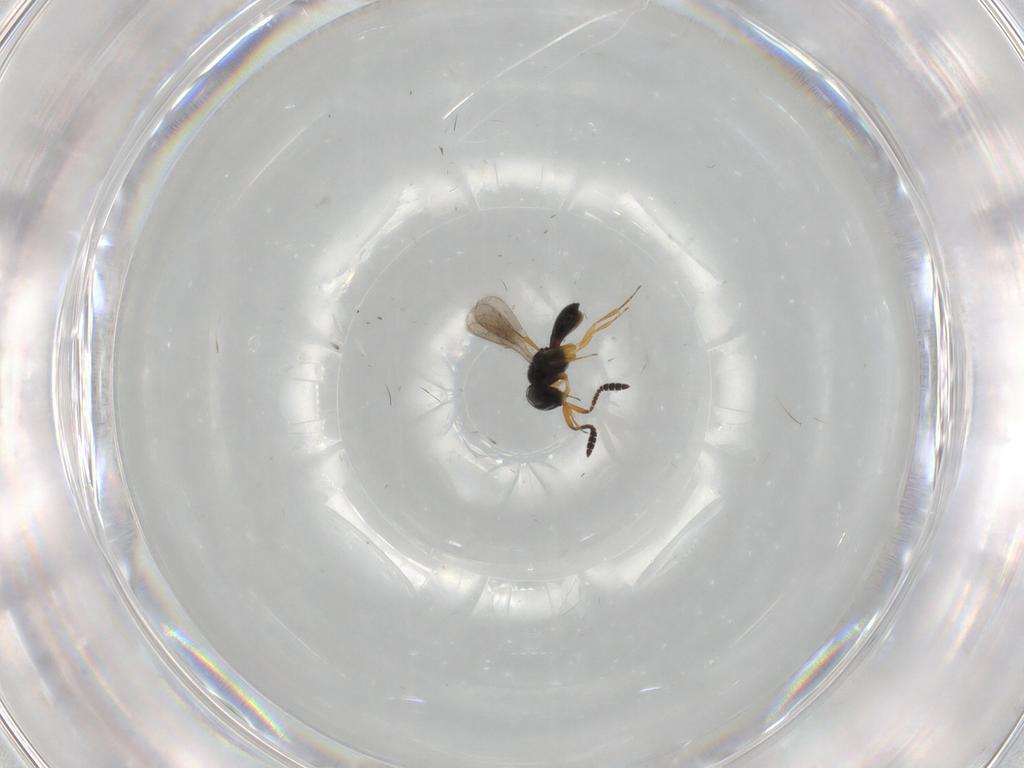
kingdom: Animalia
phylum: Arthropoda
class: Insecta
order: Hymenoptera
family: Scelionidae
